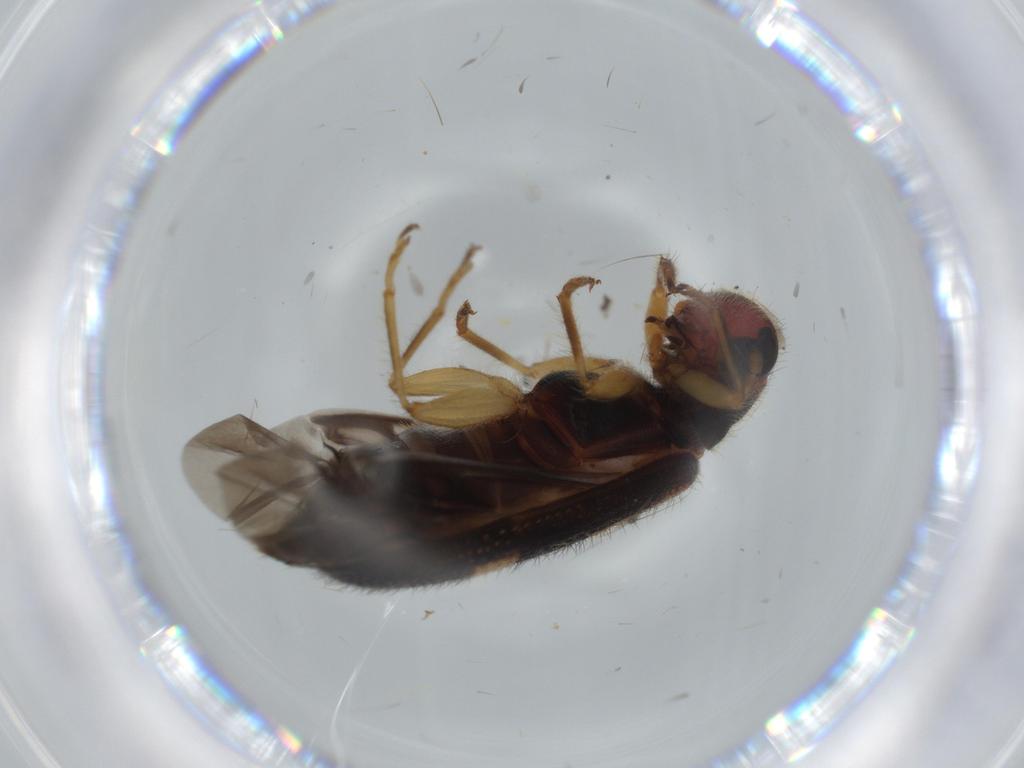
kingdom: Animalia
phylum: Arthropoda
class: Insecta
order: Coleoptera
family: Cleridae
